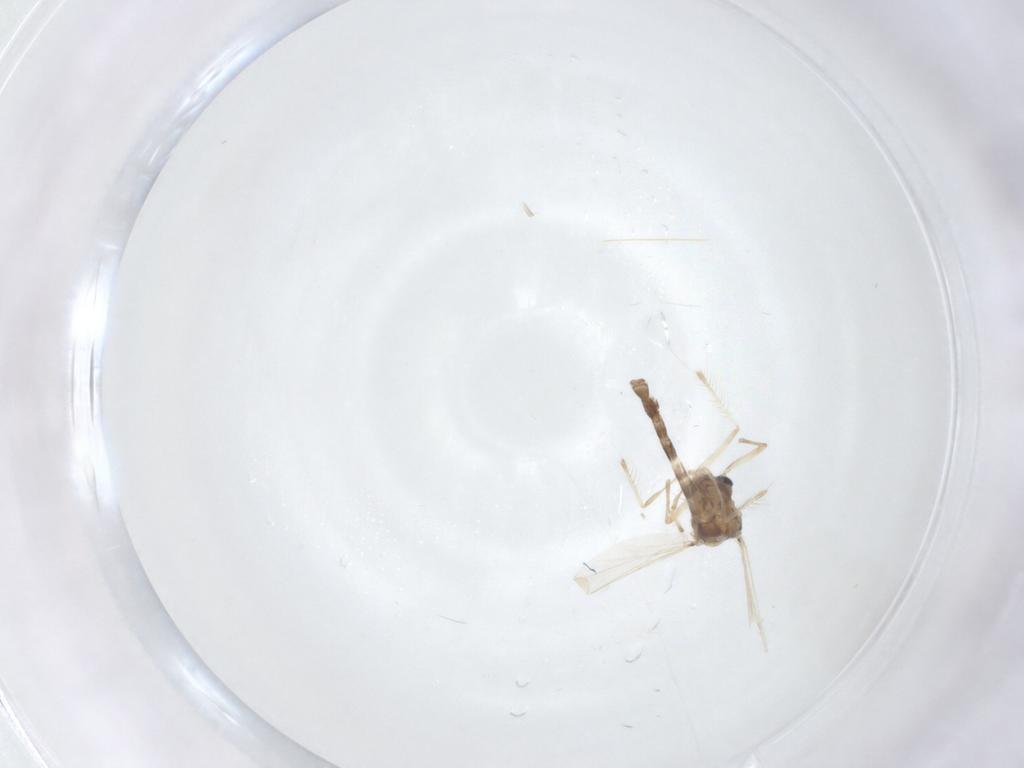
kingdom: Animalia
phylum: Arthropoda
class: Insecta
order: Diptera
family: Chironomidae
